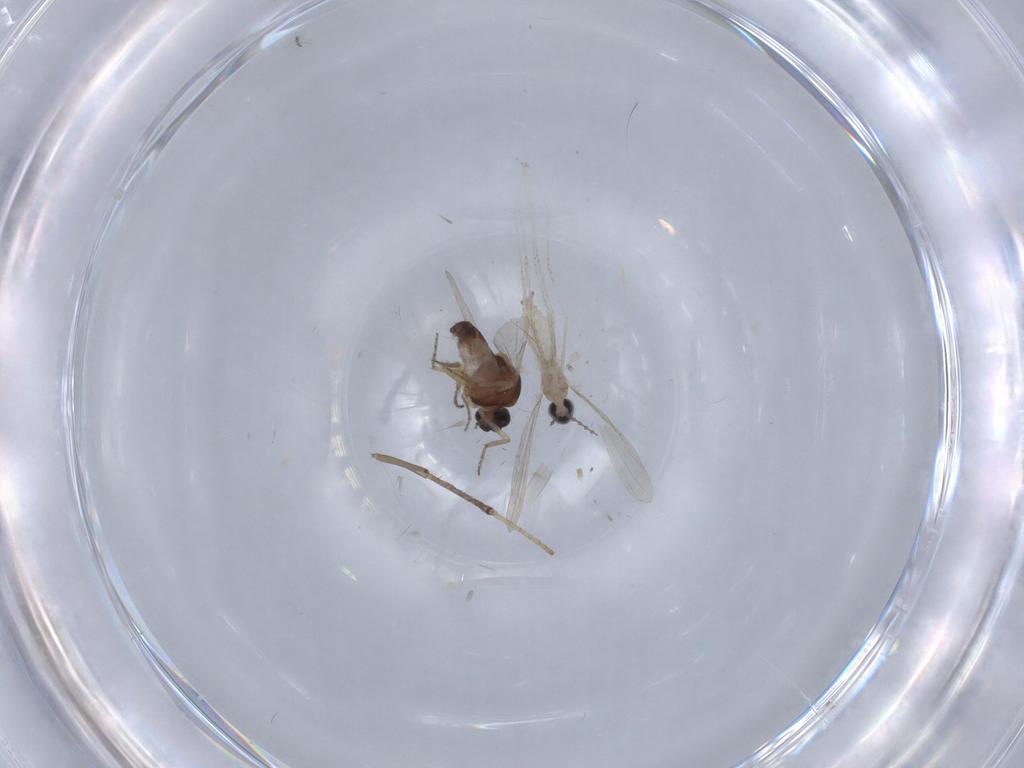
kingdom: Animalia
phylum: Arthropoda
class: Insecta
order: Diptera
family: Cecidomyiidae
